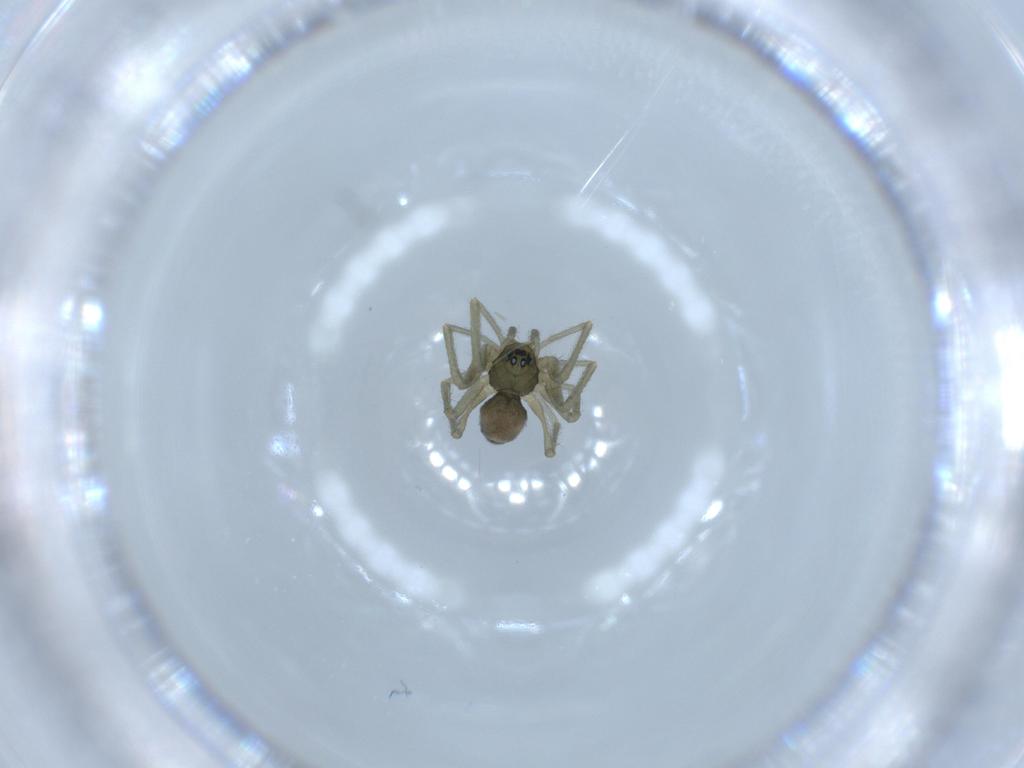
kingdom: Animalia
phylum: Arthropoda
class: Arachnida
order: Araneae
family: Linyphiidae
